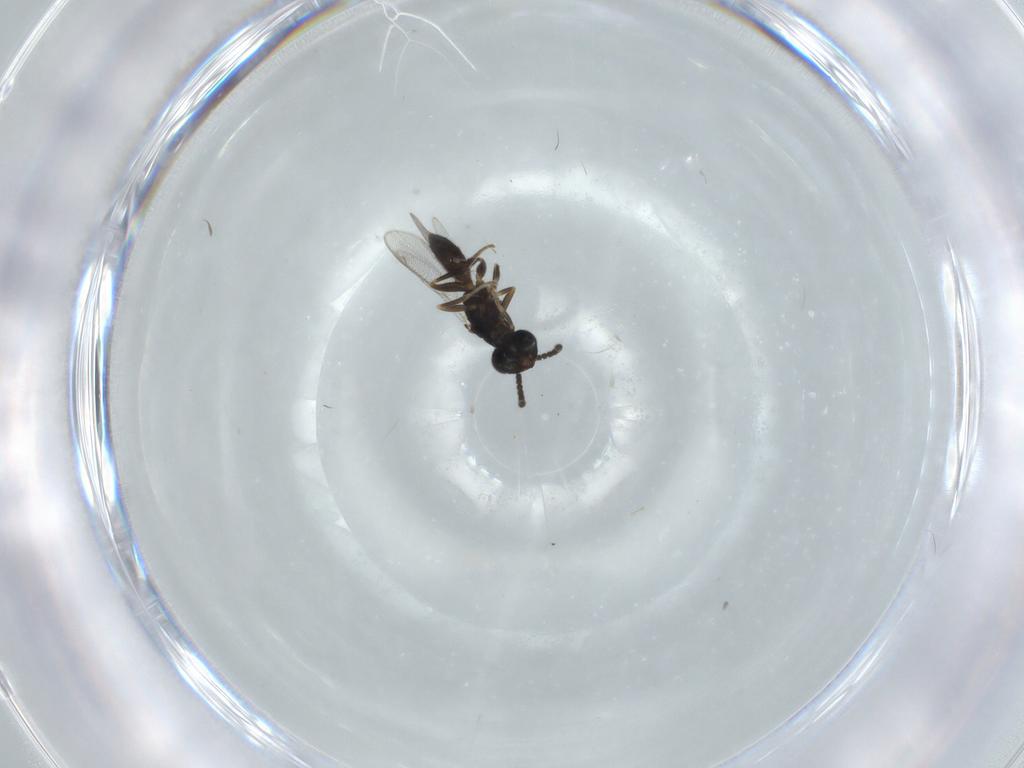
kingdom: Animalia
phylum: Arthropoda
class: Insecta
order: Hymenoptera
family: Cleonyminae
